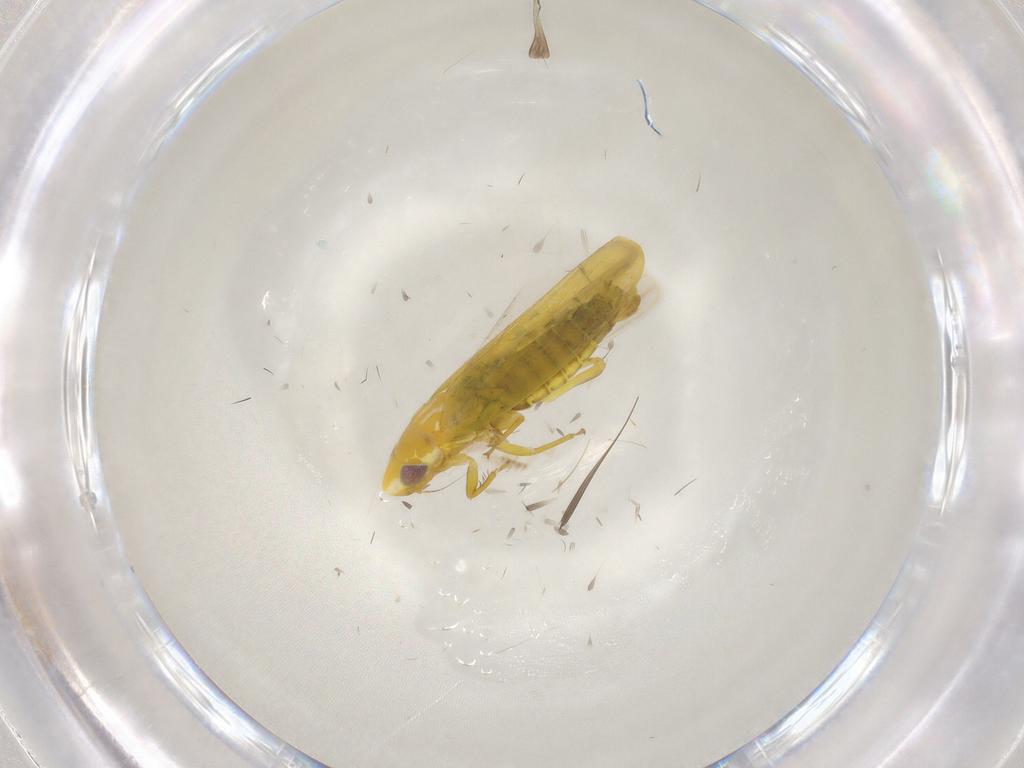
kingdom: Animalia
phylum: Arthropoda
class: Insecta
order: Hemiptera
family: Cicadellidae
